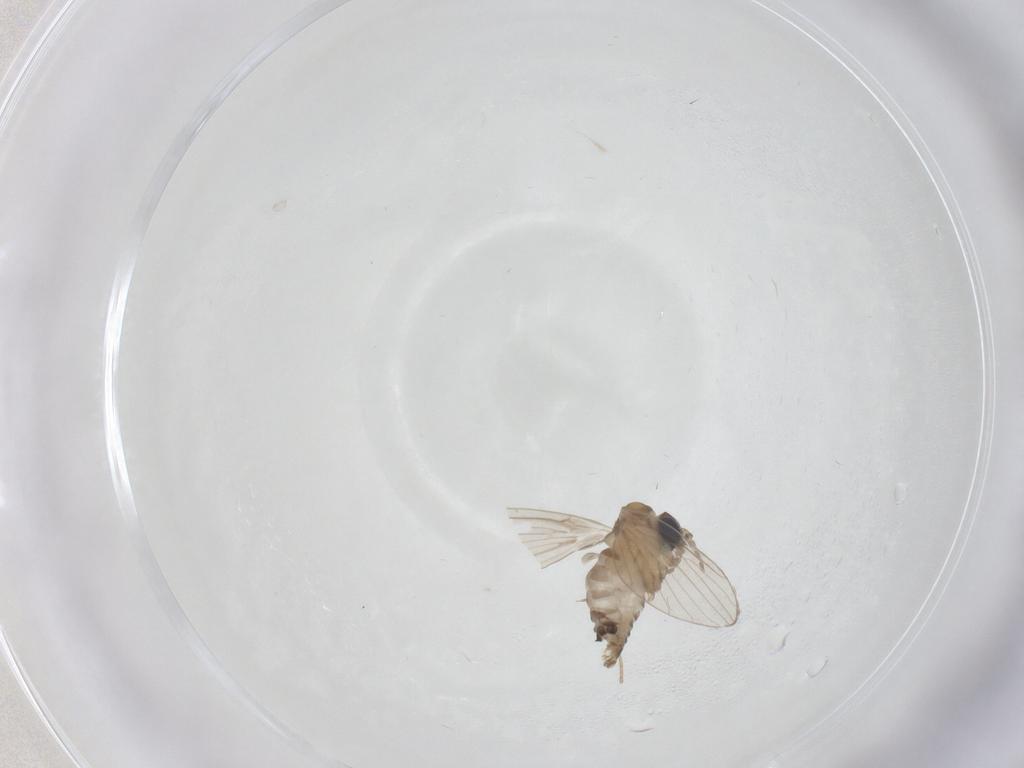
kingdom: Animalia
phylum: Arthropoda
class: Insecta
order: Diptera
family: Psychodidae
